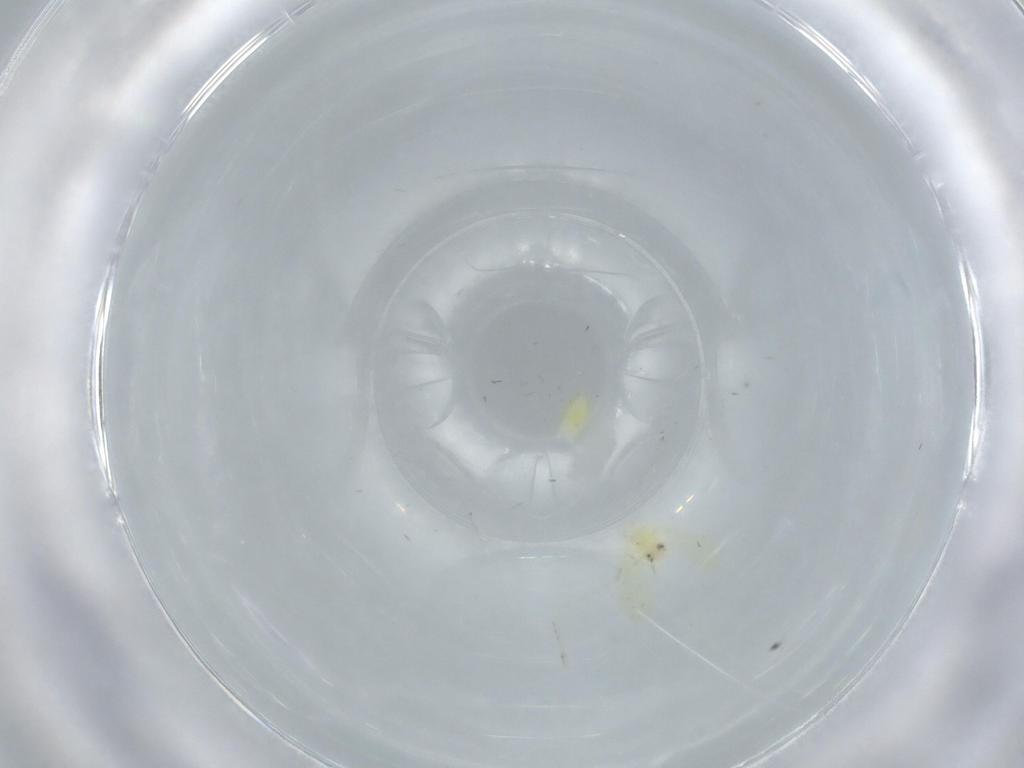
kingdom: Animalia
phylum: Arthropoda
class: Insecta
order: Hemiptera
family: Aleyrodidae
